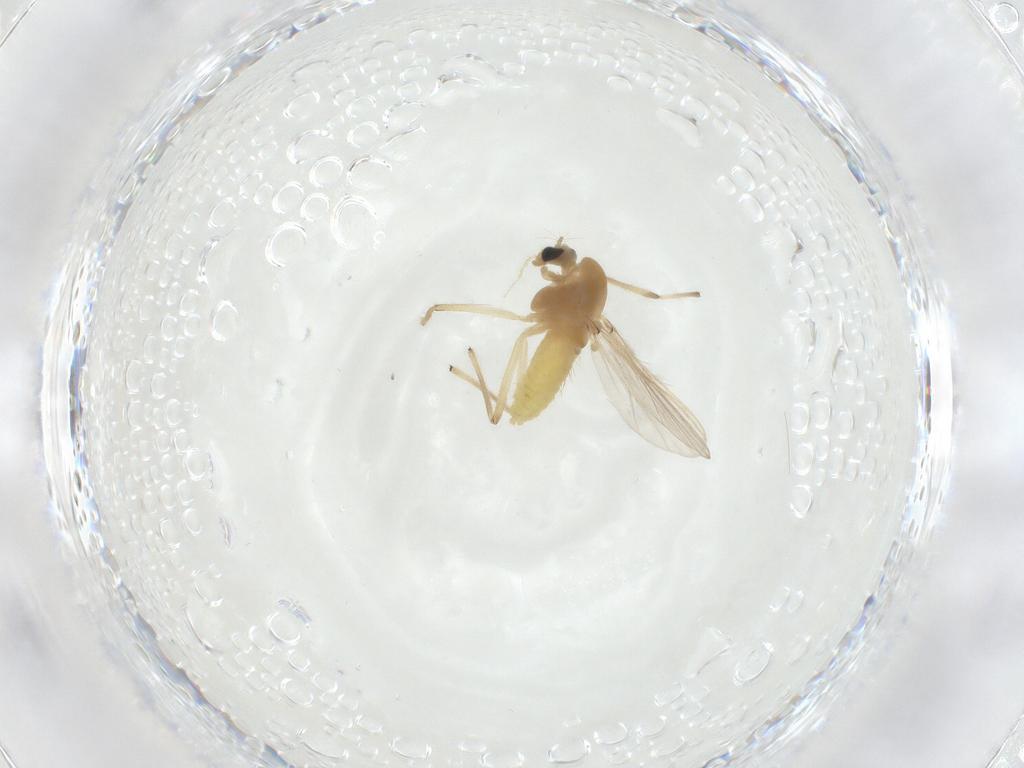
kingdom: Animalia
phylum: Arthropoda
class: Insecta
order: Diptera
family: Chironomidae
